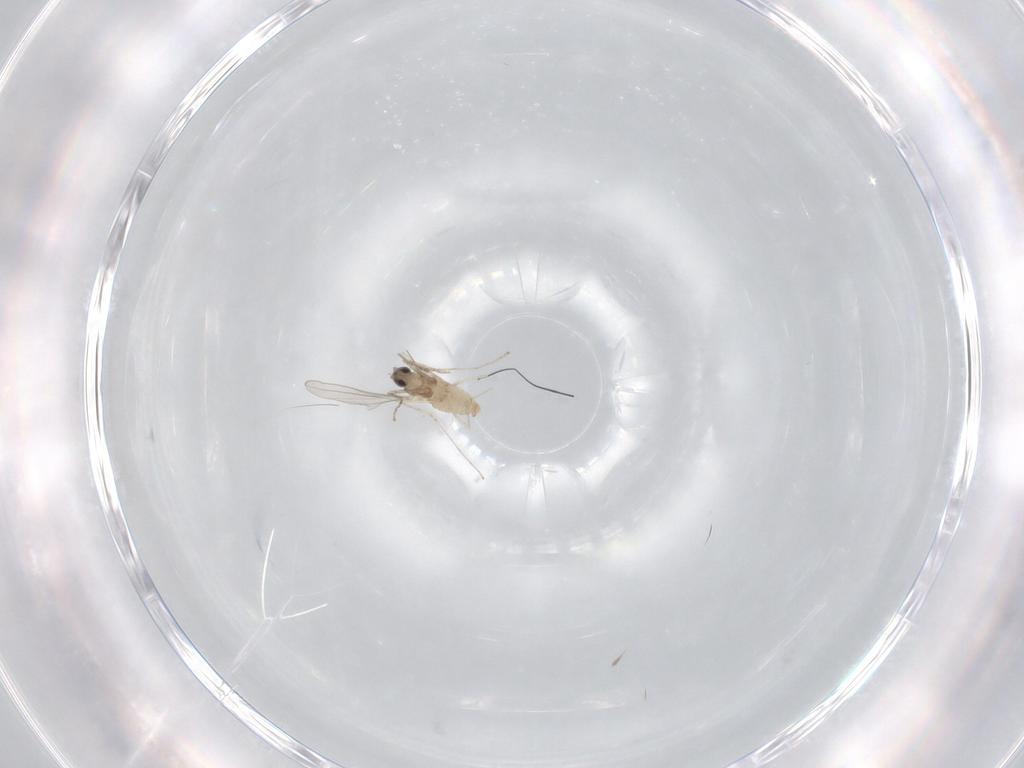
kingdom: Animalia
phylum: Arthropoda
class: Insecta
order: Diptera
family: Cecidomyiidae
